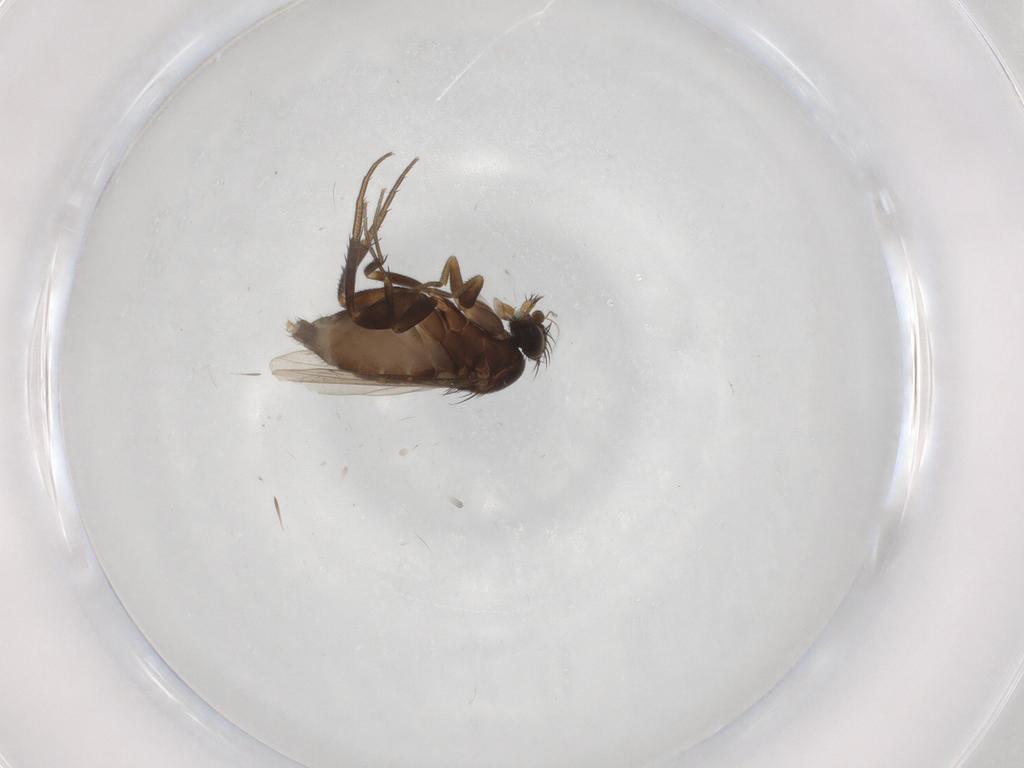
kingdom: Animalia
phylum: Arthropoda
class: Insecta
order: Diptera
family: Phoridae
